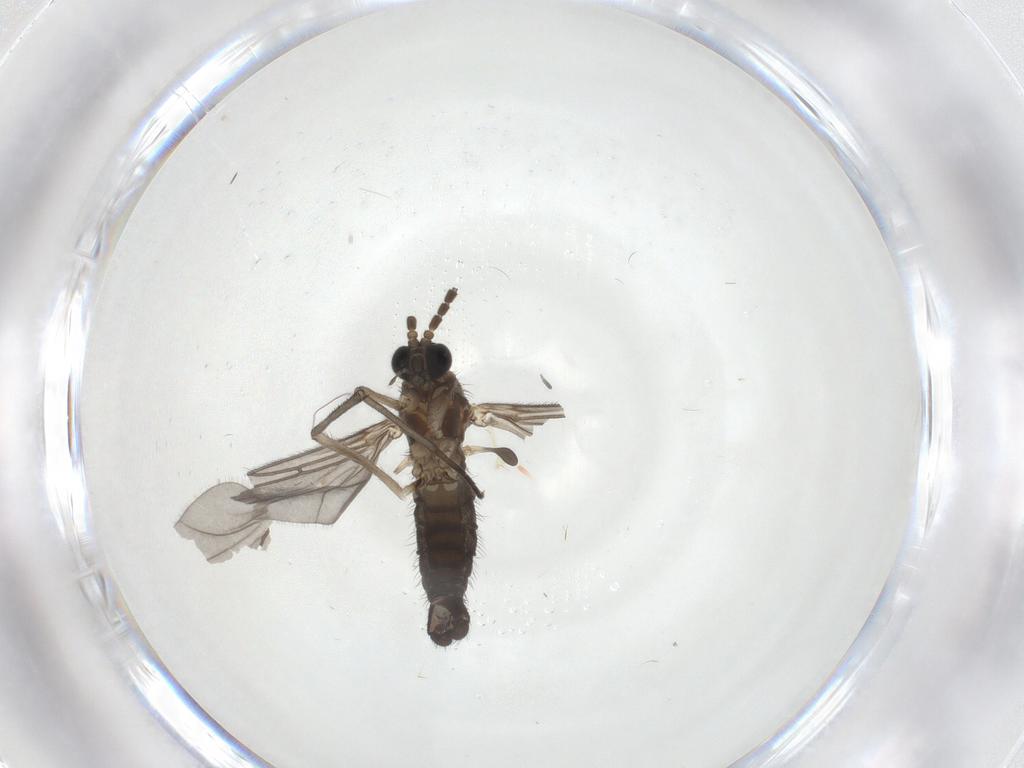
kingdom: Animalia
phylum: Arthropoda
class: Insecta
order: Diptera
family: Sciaridae
